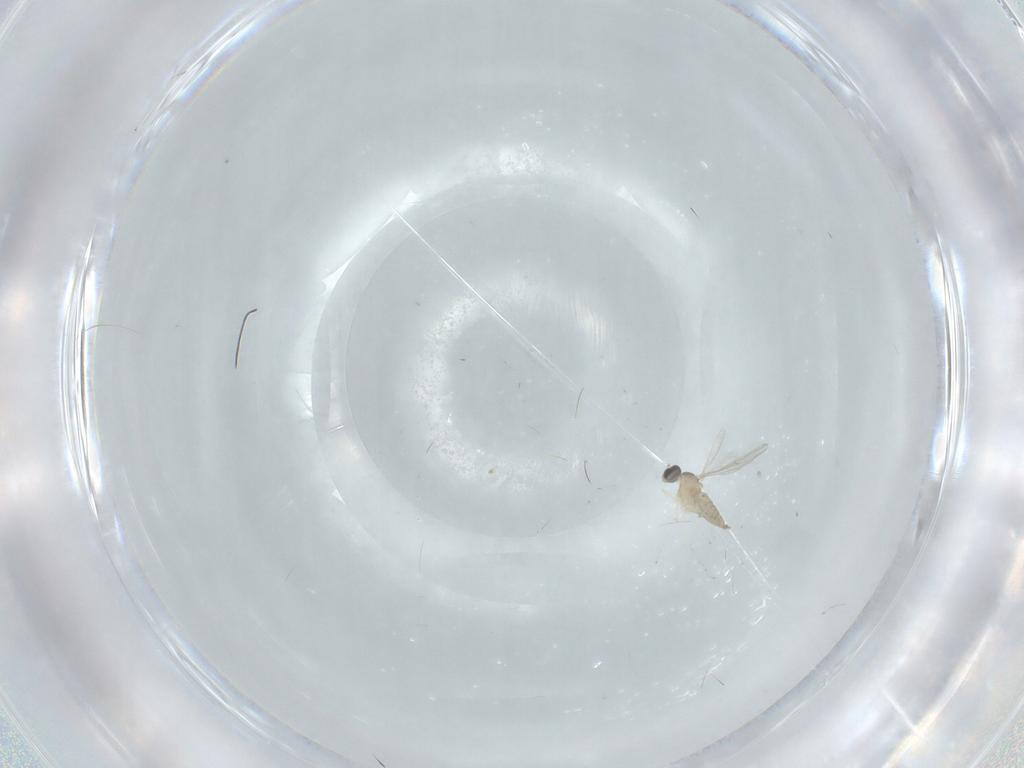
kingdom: Animalia
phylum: Arthropoda
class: Insecta
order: Diptera
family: Cecidomyiidae
